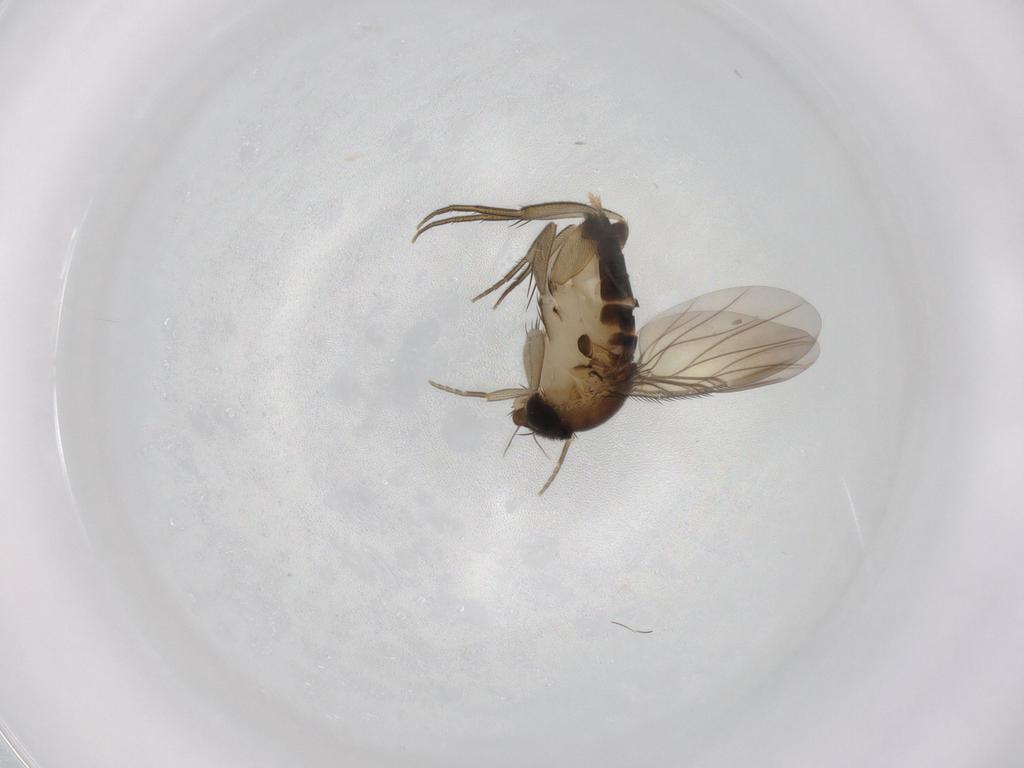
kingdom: Animalia
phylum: Arthropoda
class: Insecta
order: Diptera
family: Phoridae
